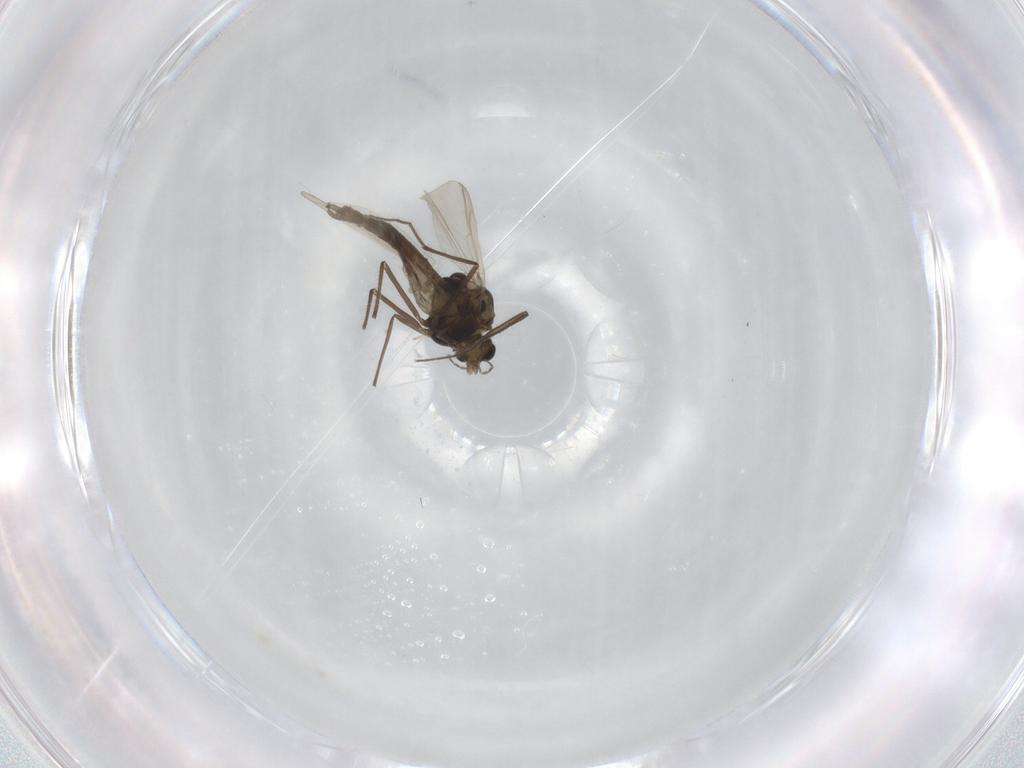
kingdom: Animalia
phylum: Arthropoda
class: Insecta
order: Diptera
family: Chironomidae
